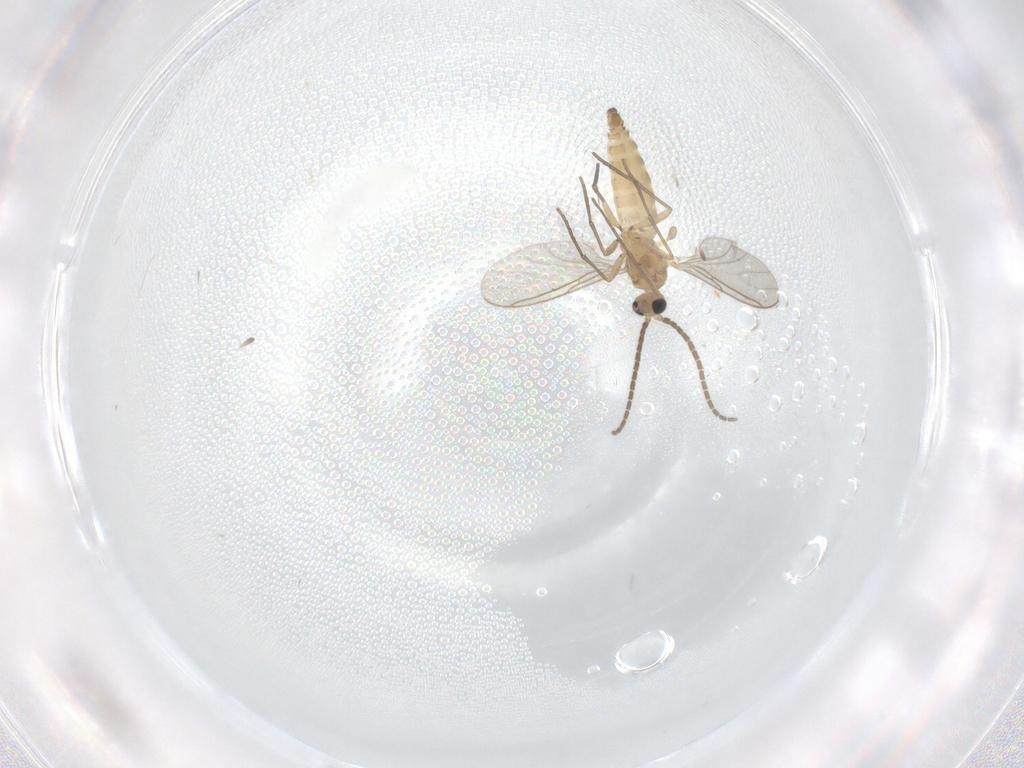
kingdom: Animalia
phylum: Arthropoda
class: Insecta
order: Diptera
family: Sciaridae
